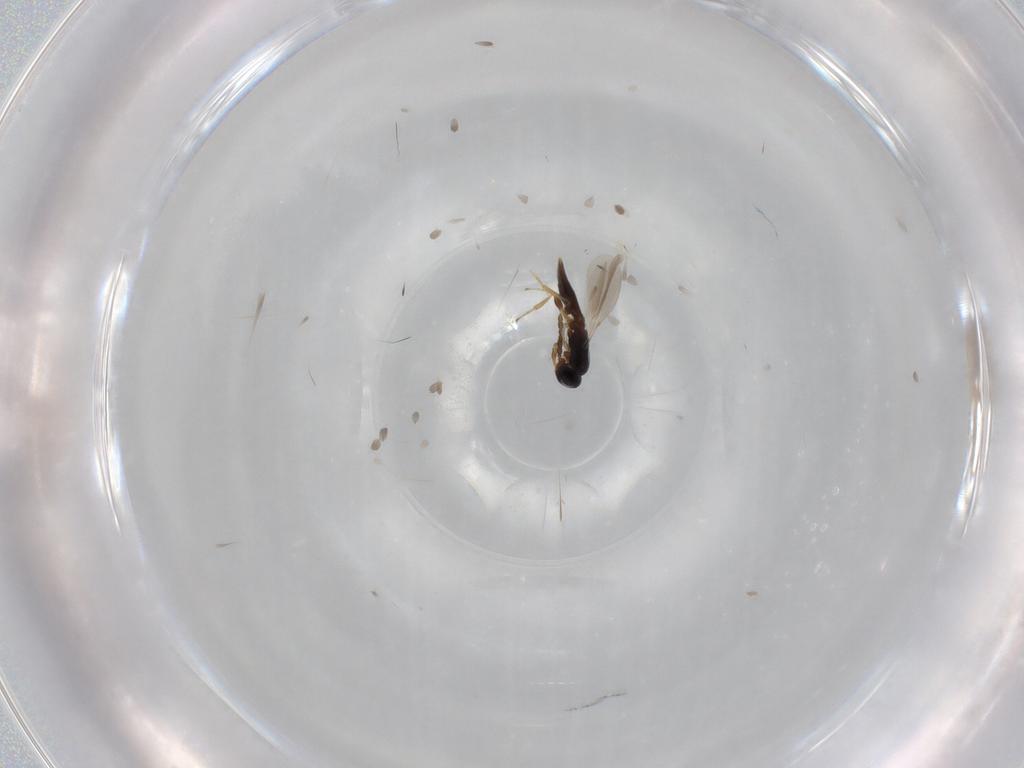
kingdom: Animalia
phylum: Arthropoda
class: Insecta
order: Hymenoptera
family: Platygastridae
